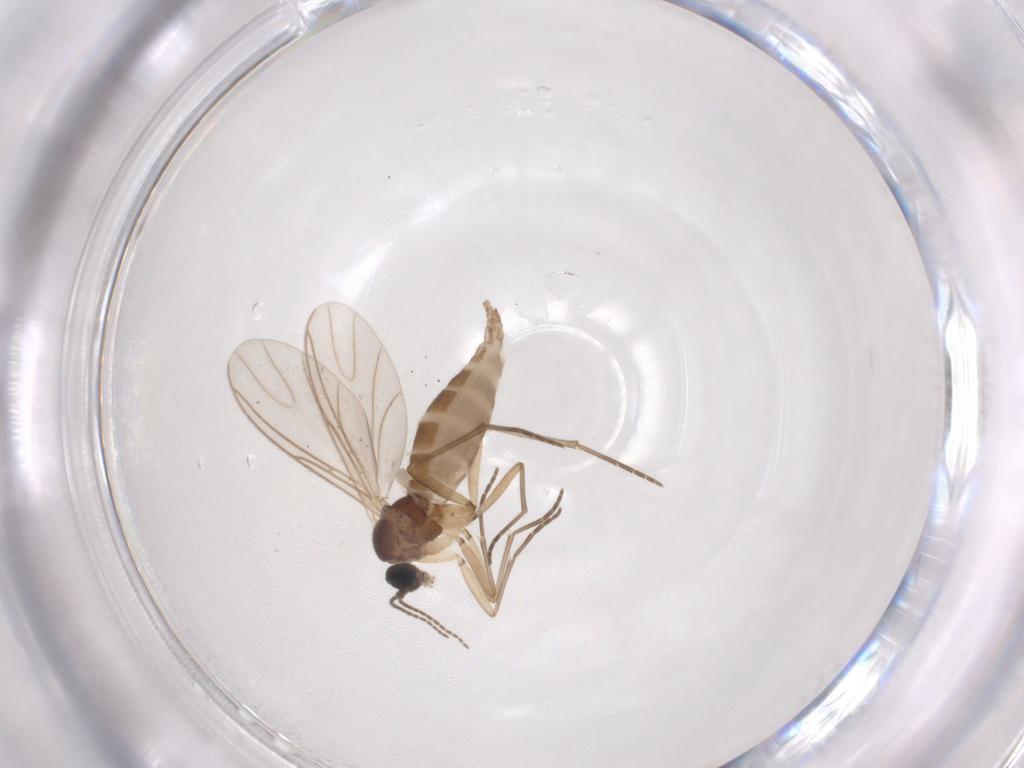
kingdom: Animalia
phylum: Arthropoda
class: Insecta
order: Diptera
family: Sciaridae
